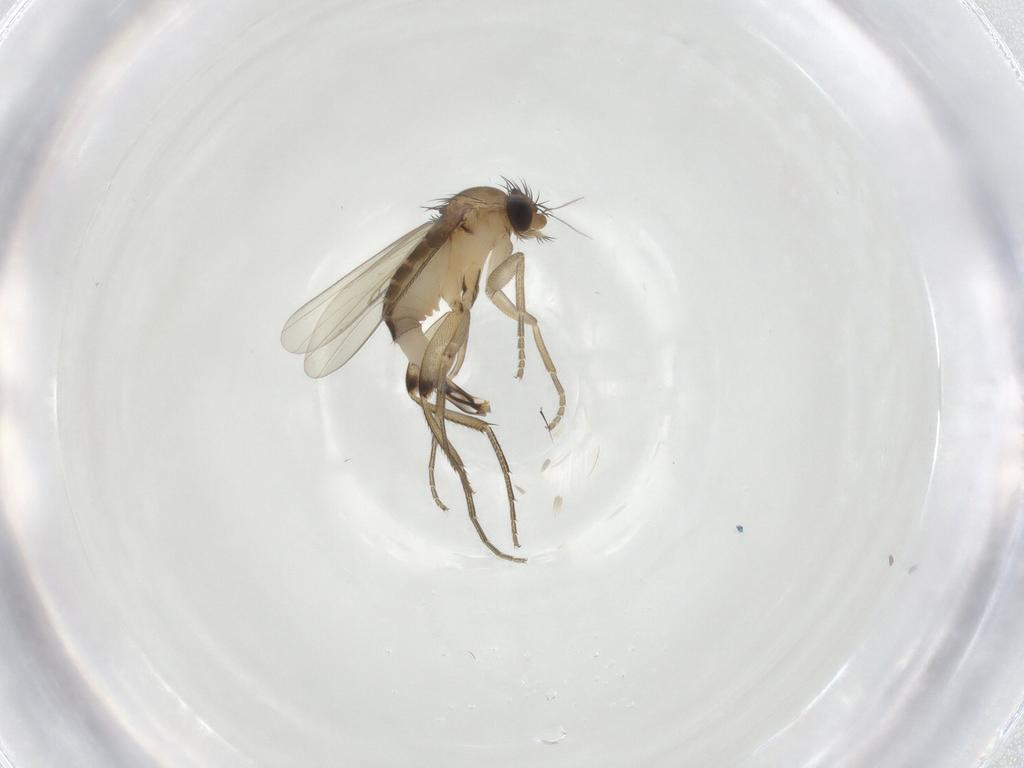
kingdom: Animalia
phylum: Arthropoda
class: Insecta
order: Diptera
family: Phoridae
